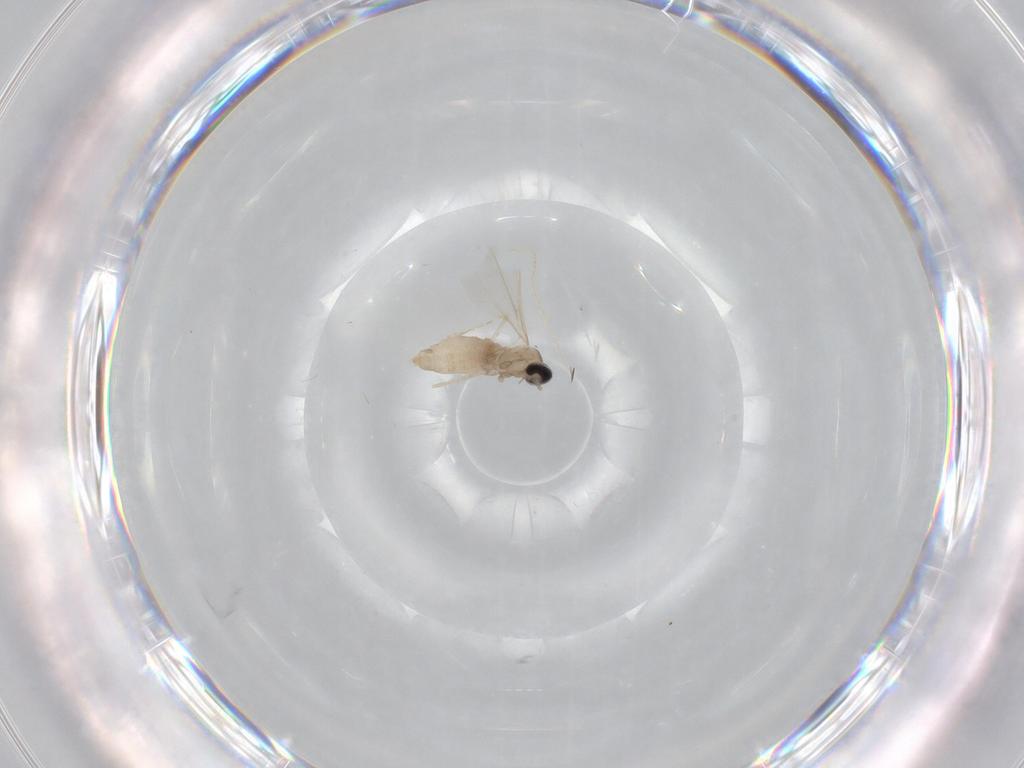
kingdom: Animalia
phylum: Arthropoda
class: Insecta
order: Diptera
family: Cecidomyiidae
